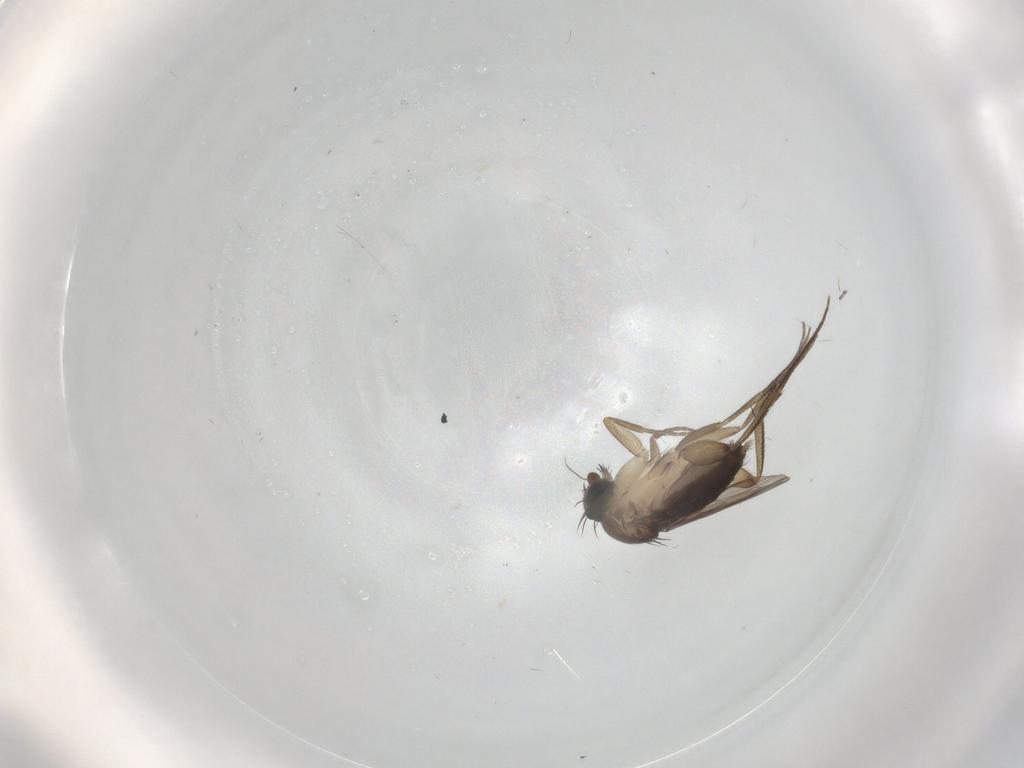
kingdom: Animalia
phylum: Arthropoda
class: Insecta
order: Diptera
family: Phoridae
